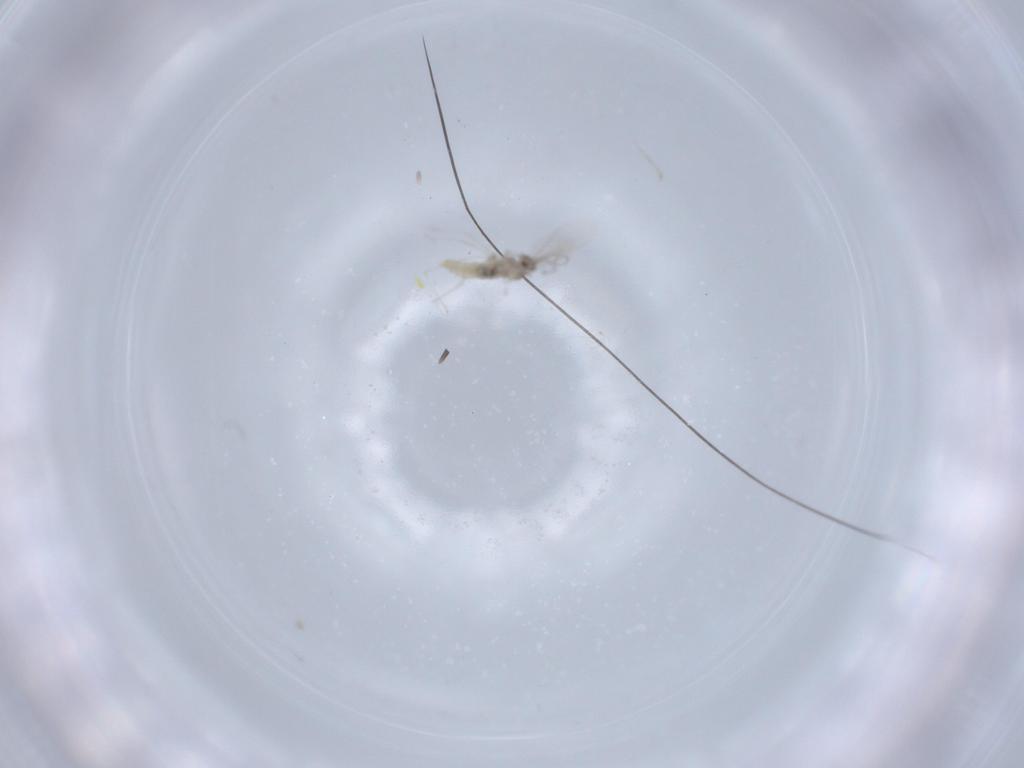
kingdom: Animalia
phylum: Arthropoda
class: Insecta
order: Diptera
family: Cecidomyiidae
